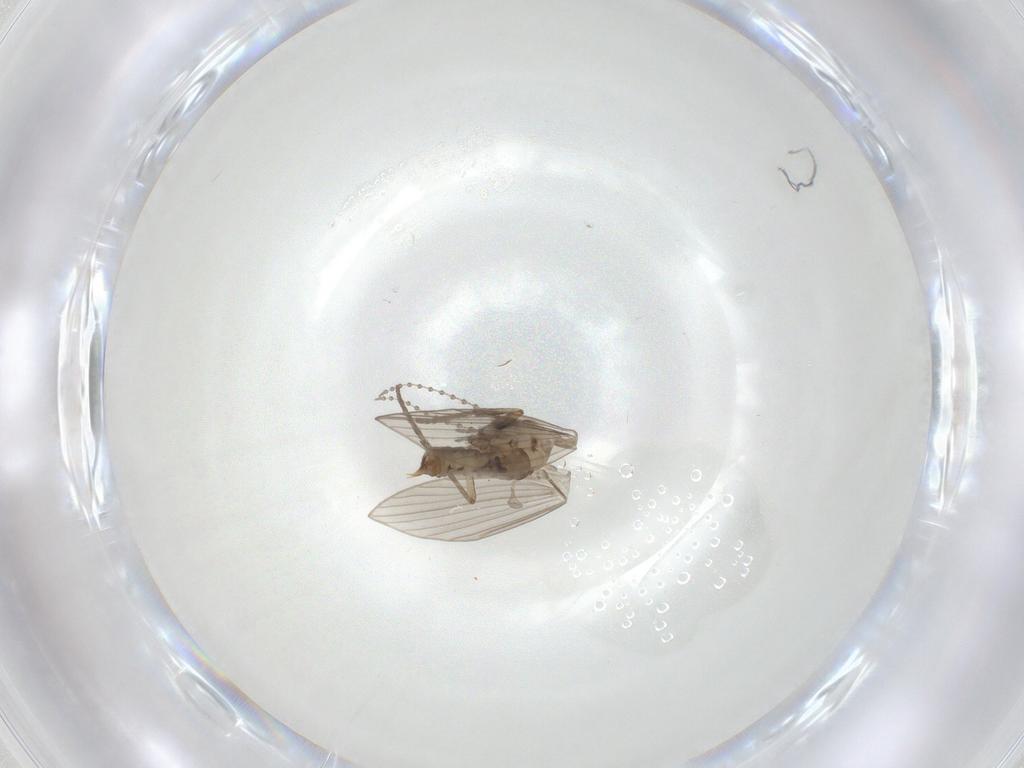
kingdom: Animalia
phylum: Arthropoda
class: Insecta
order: Diptera
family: Psychodidae
